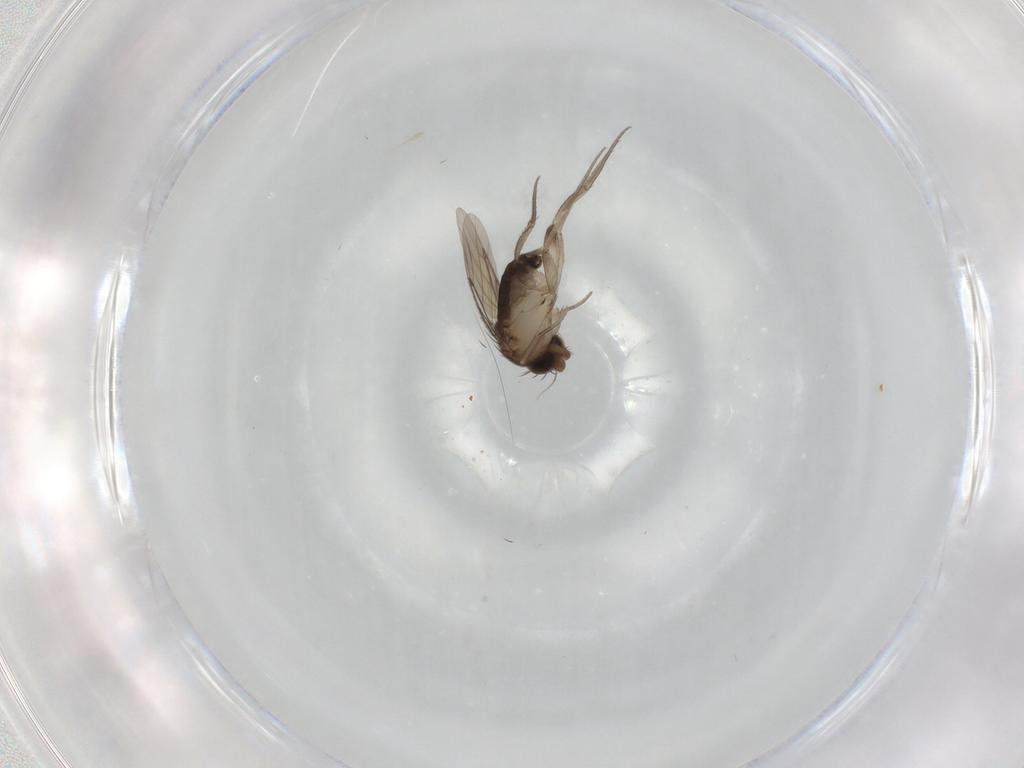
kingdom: Animalia
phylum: Arthropoda
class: Insecta
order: Diptera
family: Phoridae
